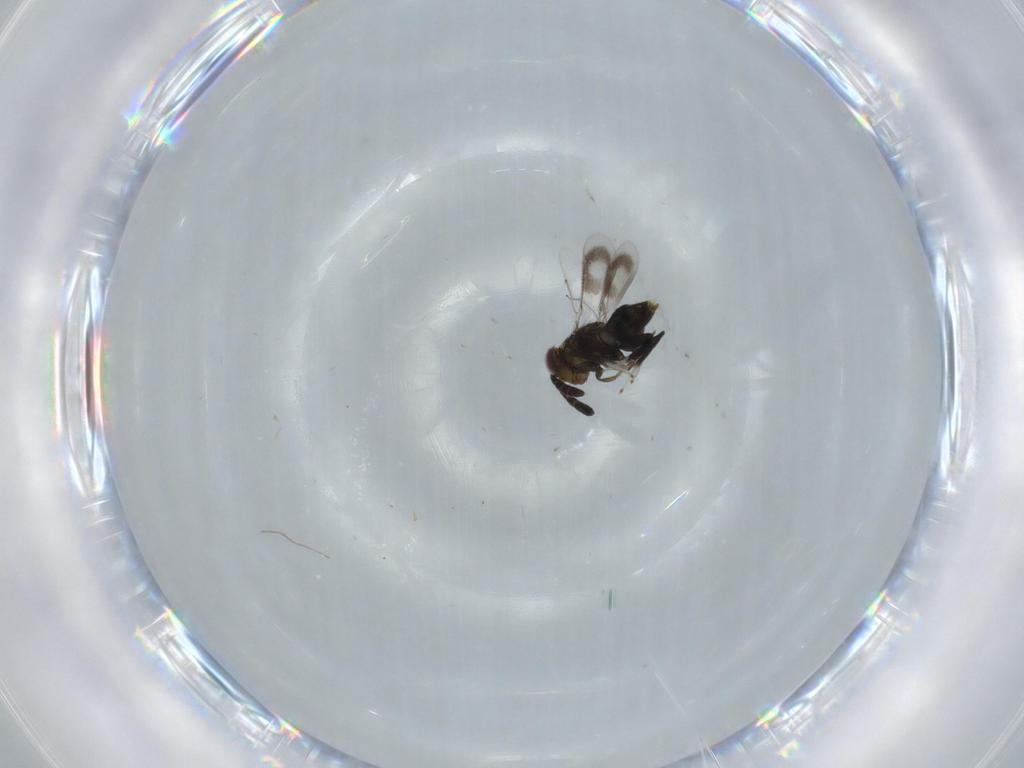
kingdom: Animalia
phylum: Arthropoda
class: Insecta
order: Hymenoptera
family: Aphelinidae
